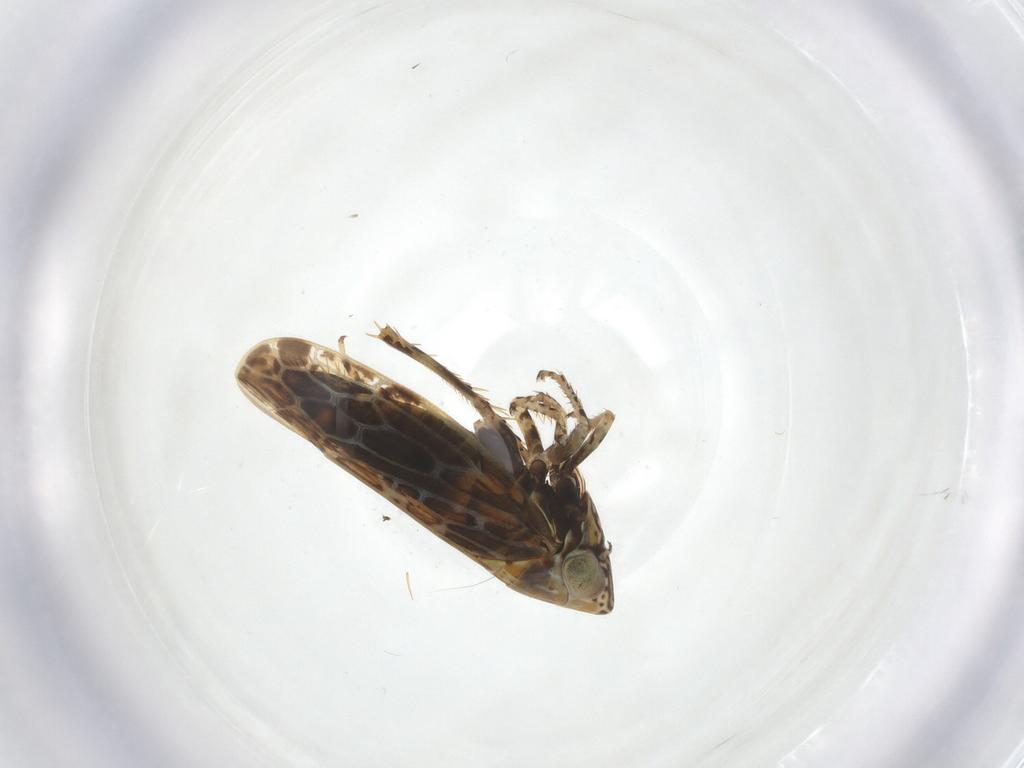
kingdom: Animalia
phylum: Arthropoda
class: Insecta
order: Hemiptera
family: Cicadellidae
